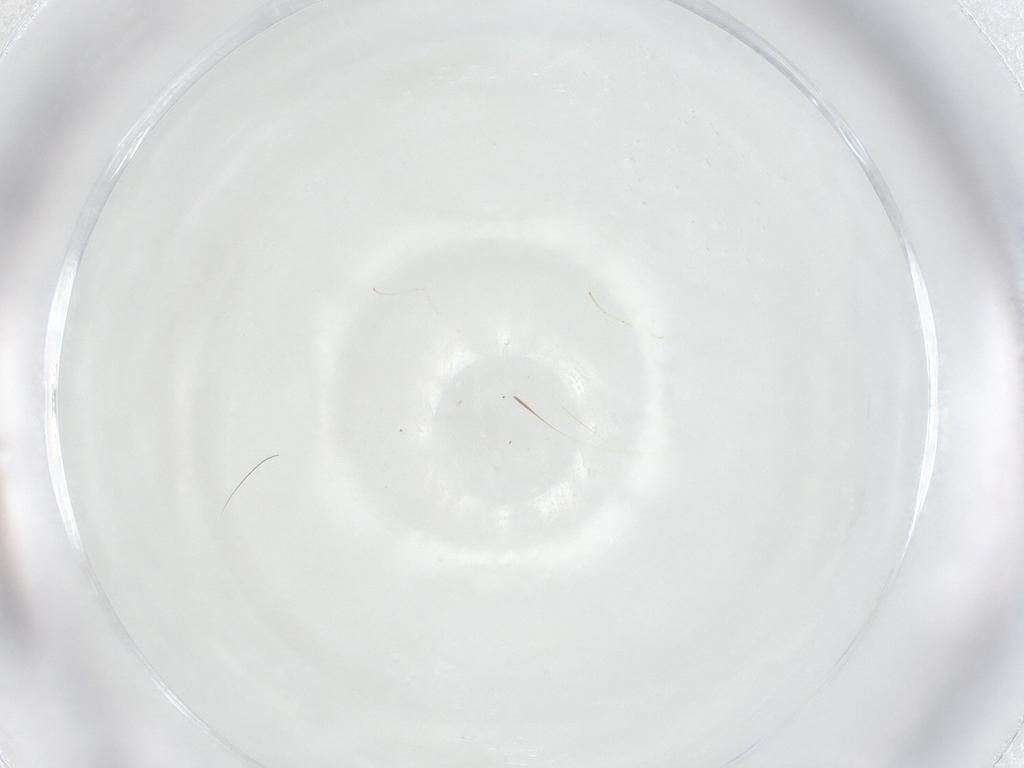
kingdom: Animalia
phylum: Arthropoda
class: Insecta
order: Diptera
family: Cecidomyiidae
